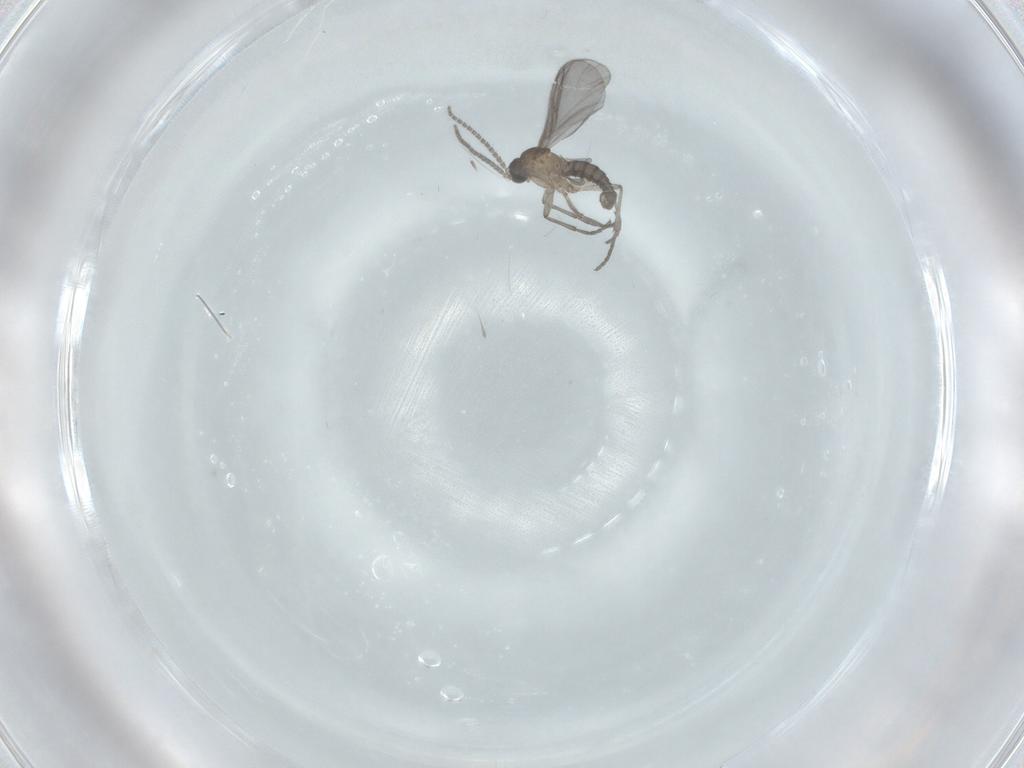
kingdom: Animalia
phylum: Arthropoda
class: Insecta
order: Diptera
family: Sciaridae
